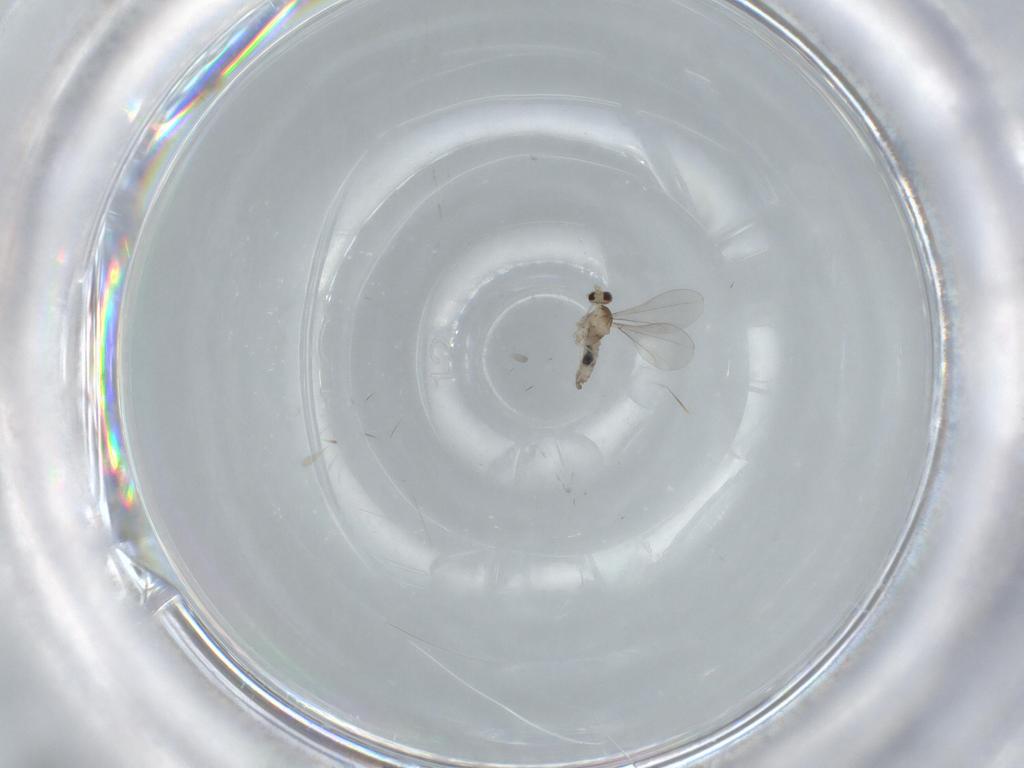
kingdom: Animalia
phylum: Arthropoda
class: Insecta
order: Diptera
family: Cecidomyiidae
